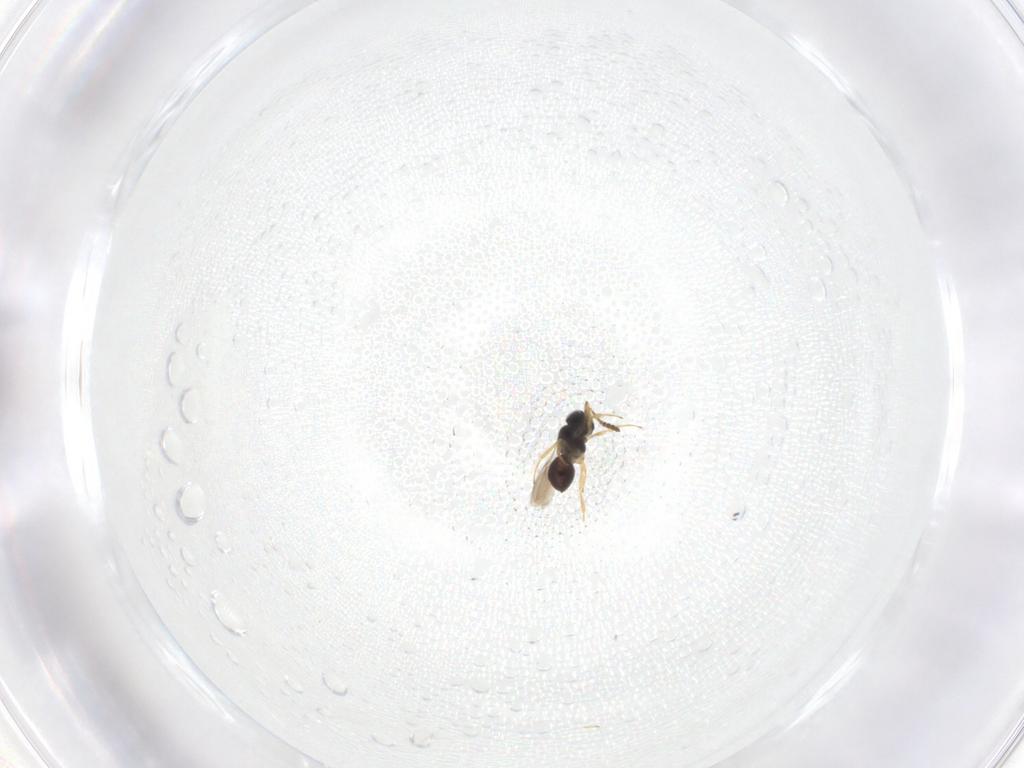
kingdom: Animalia
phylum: Arthropoda
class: Insecta
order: Hymenoptera
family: Scelionidae
